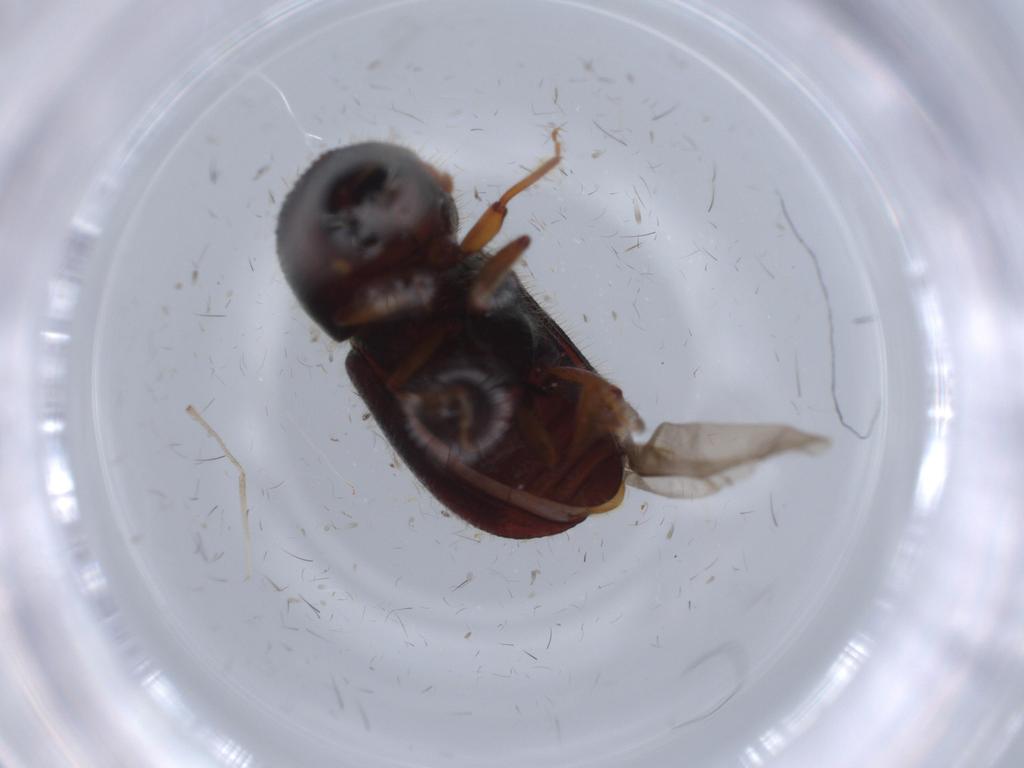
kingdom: Animalia
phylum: Arthropoda
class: Insecta
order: Coleoptera
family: Curculionidae
